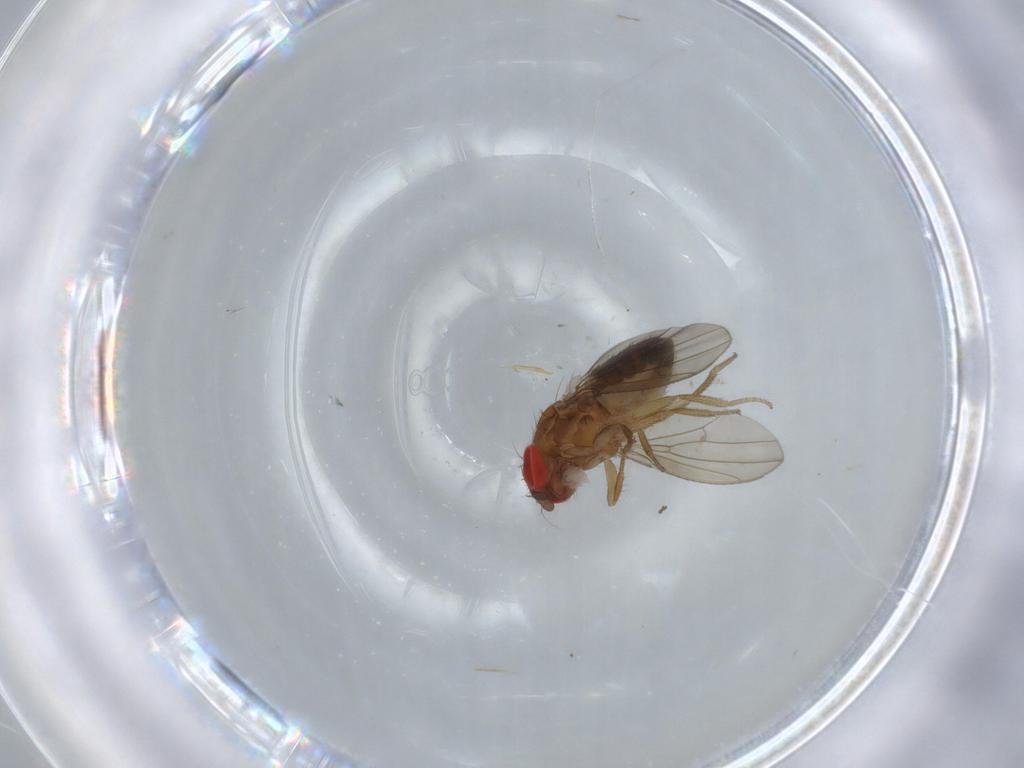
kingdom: Animalia
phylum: Arthropoda
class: Insecta
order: Diptera
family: Drosophilidae
